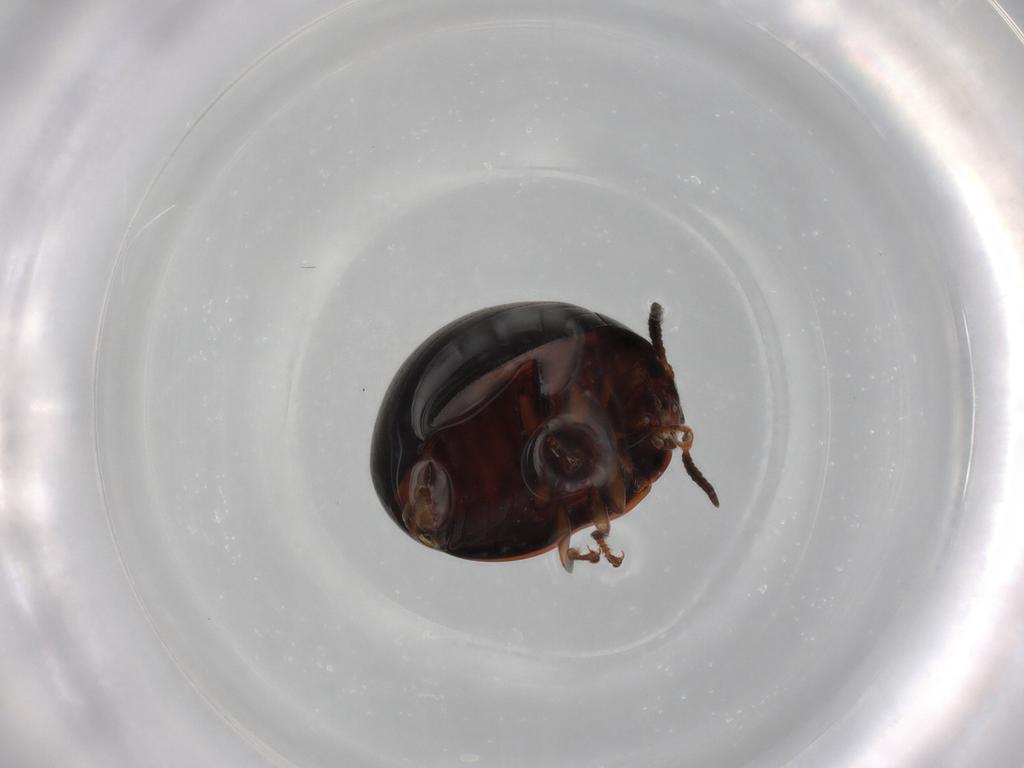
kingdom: Animalia
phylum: Arthropoda
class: Insecta
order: Coleoptera
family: Tenebrionidae
